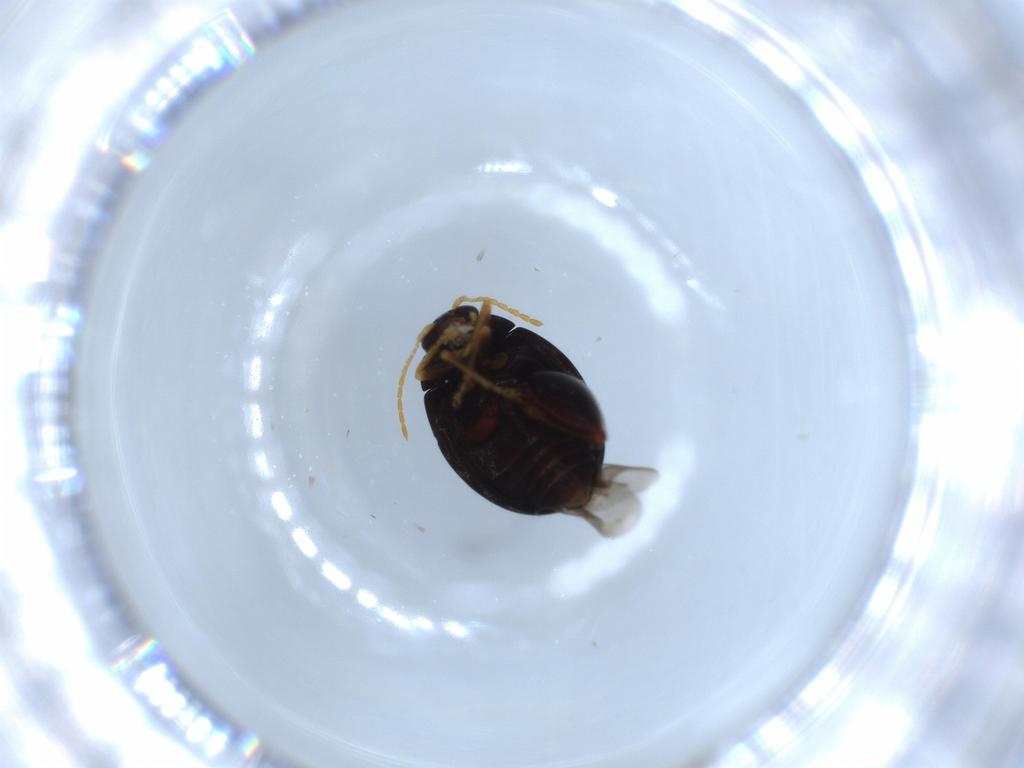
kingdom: Animalia
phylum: Arthropoda
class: Insecta
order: Coleoptera
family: Chrysomelidae
